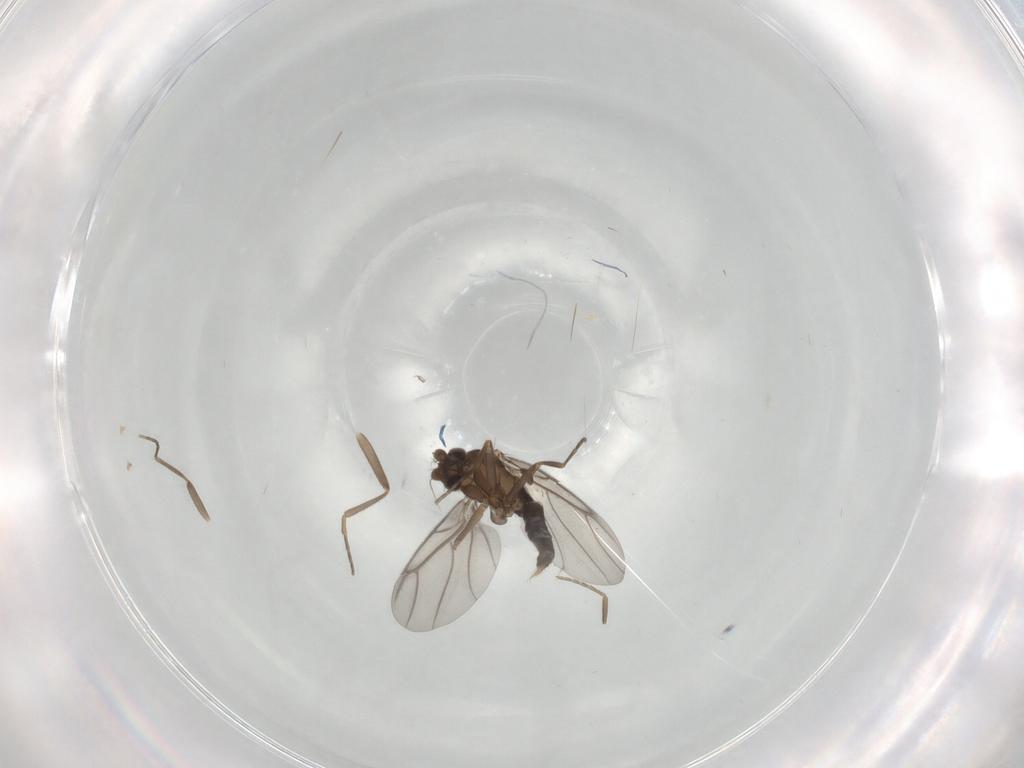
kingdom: Animalia
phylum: Arthropoda
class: Insecta
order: Diptera
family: Phoridae
